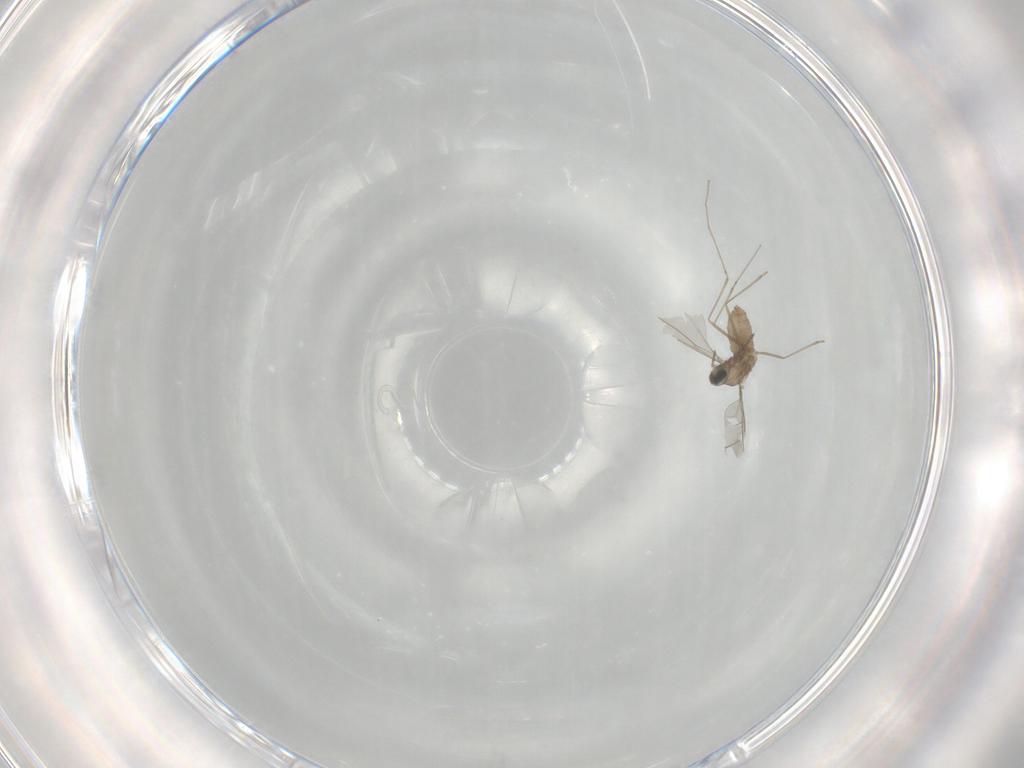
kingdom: Animalia
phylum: Arthropoda
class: Insecta
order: Diptera
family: Cecidomyiidae
